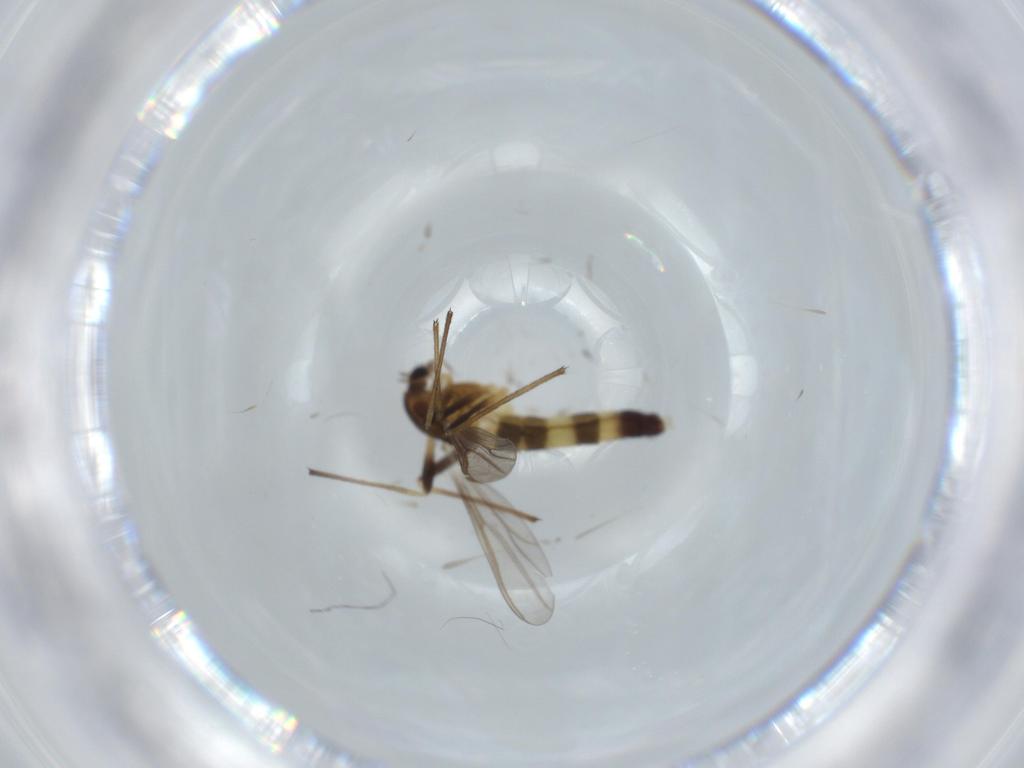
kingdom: Animalia
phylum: Arthropoda
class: Insecta
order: Diptera
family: Chironomidae
